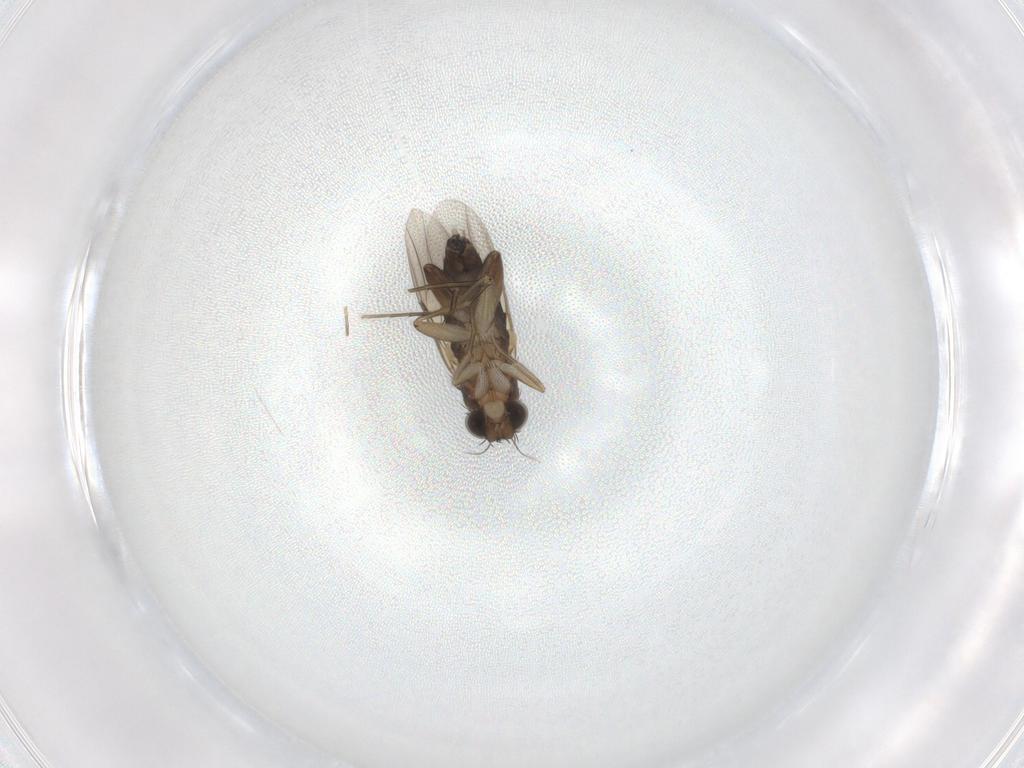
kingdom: Animalia
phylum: Arthropoda
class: Insecta
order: Diptera
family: Phoridae
